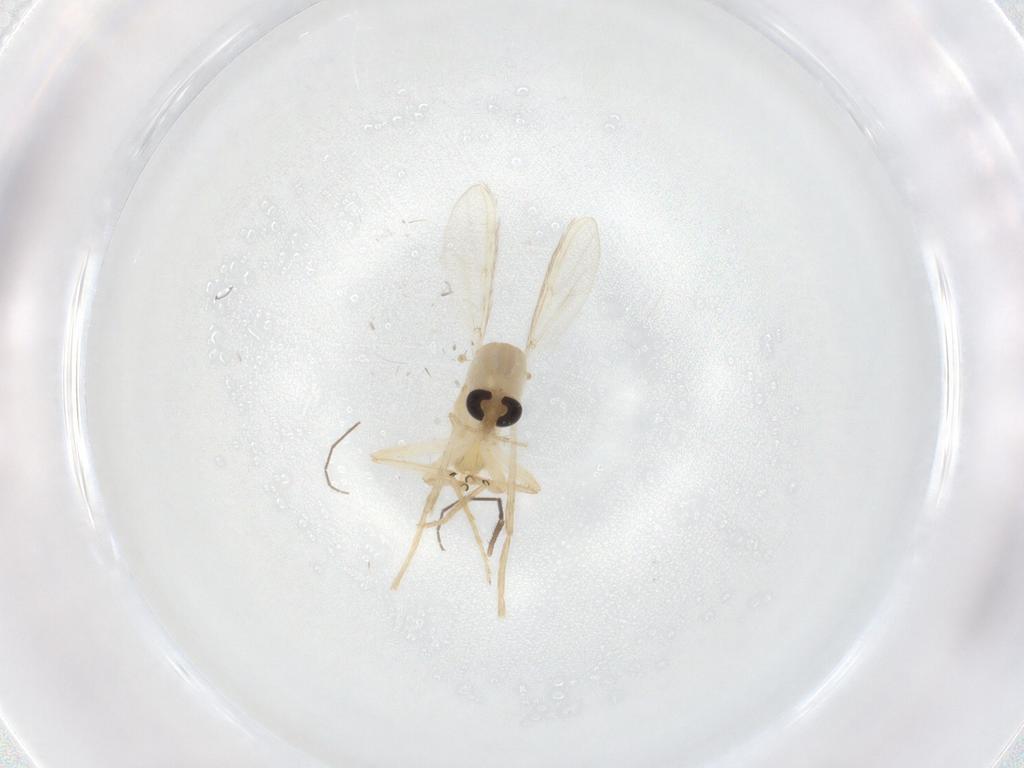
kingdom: Animalia
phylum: Arthropoda
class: Insecta
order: Diptera
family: Chironomidae
